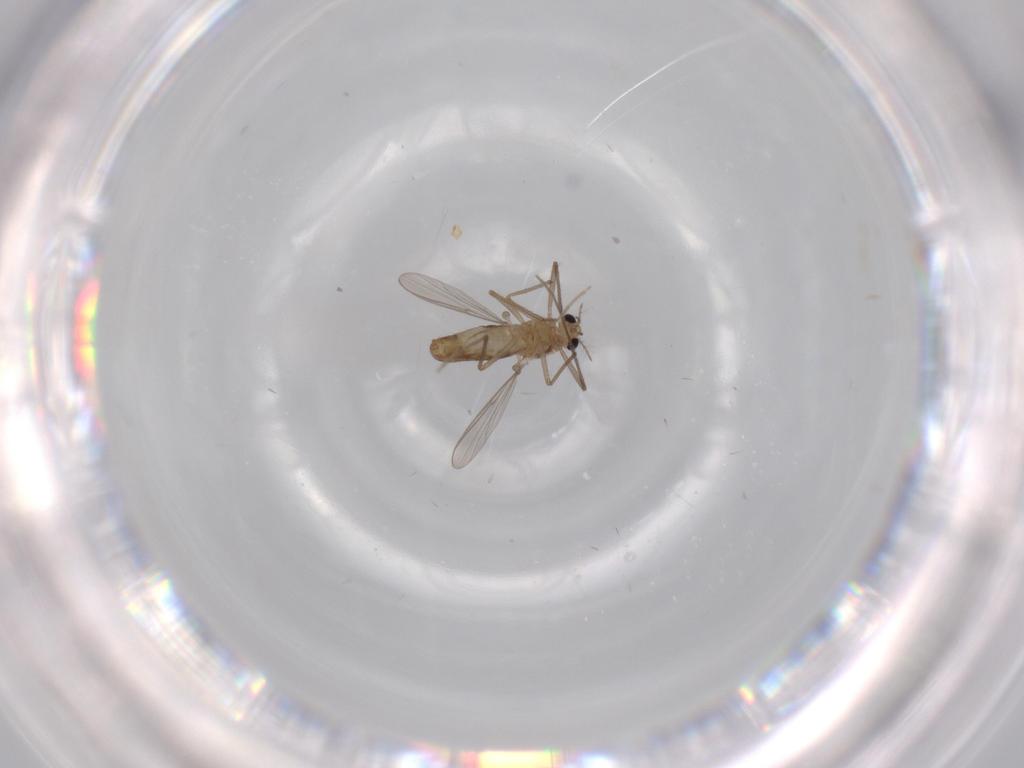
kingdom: Animalia
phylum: Arthropoda
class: Insecta
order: Diptera
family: Chironomidae
